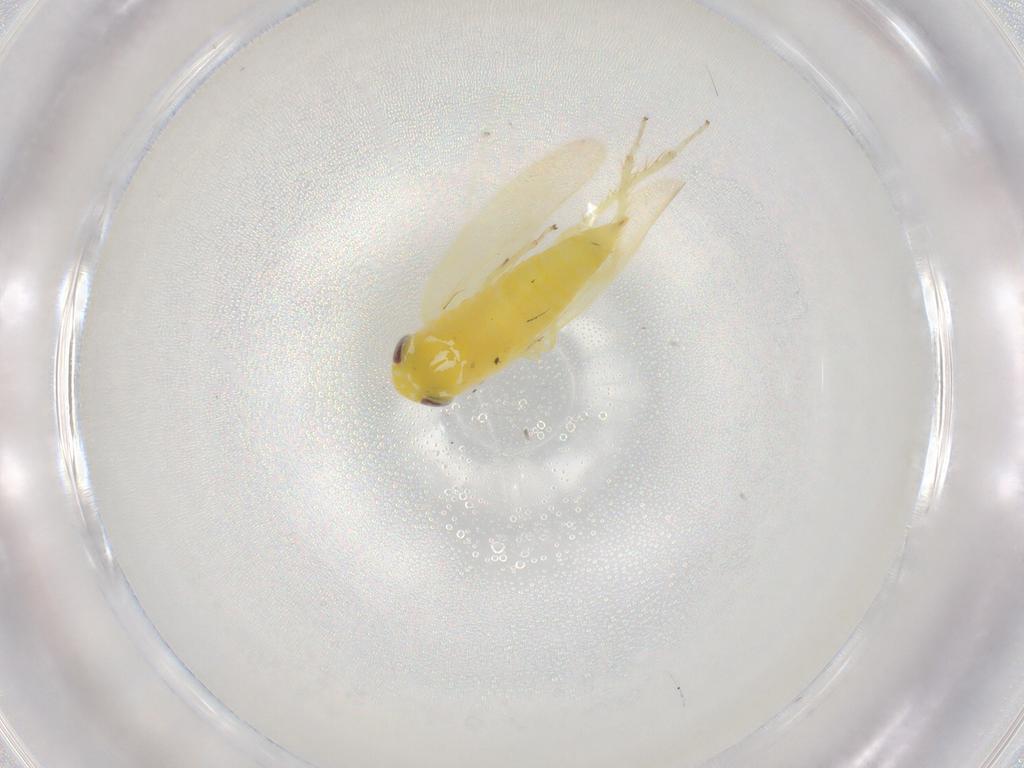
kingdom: Animalia
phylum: Arthropoda
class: Insecta
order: Hemiptera
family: Cicadellidae
